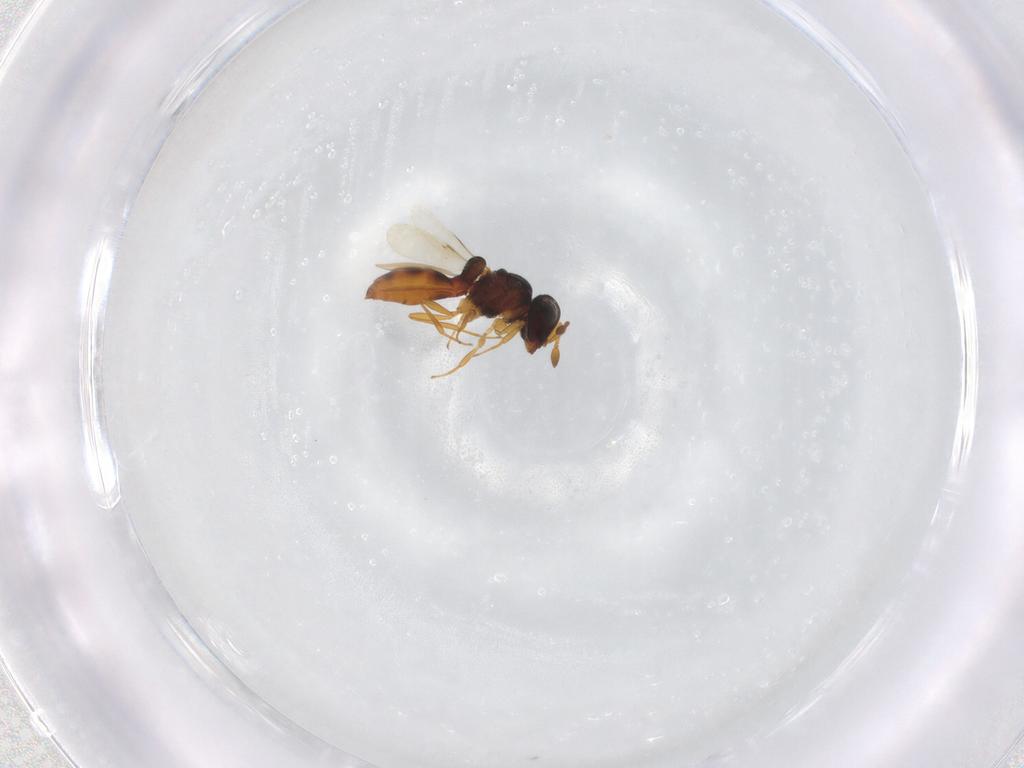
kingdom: Animalia
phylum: Arthropoda
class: Insecta
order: Hymenoptera
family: Scelionidae
